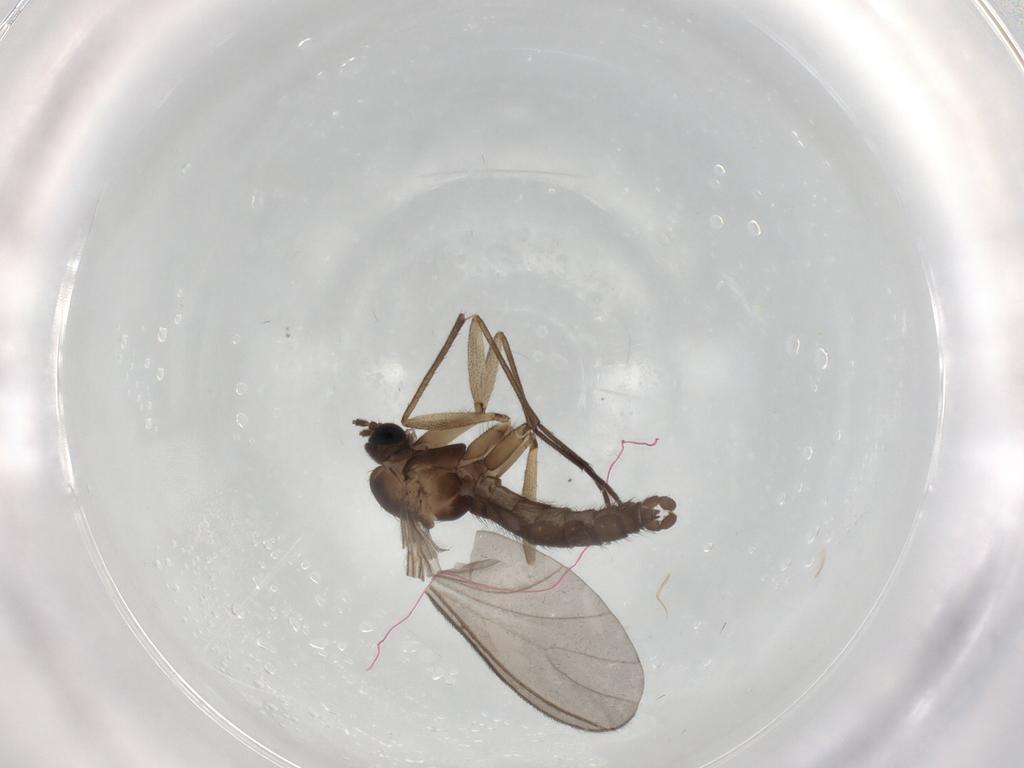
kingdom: Animalia
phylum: Arthropoda
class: Insecta
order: Diptera
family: Sciaridae
